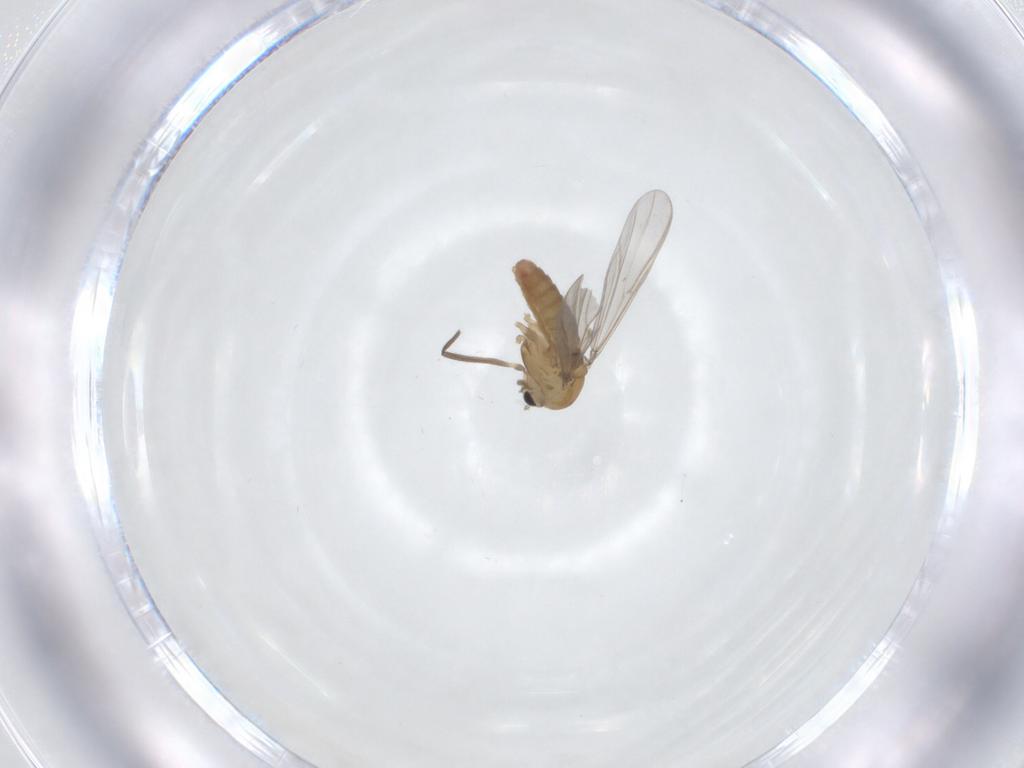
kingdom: Animalia
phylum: Arthropoda
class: Insecta
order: Diptera
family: Chironomidae
